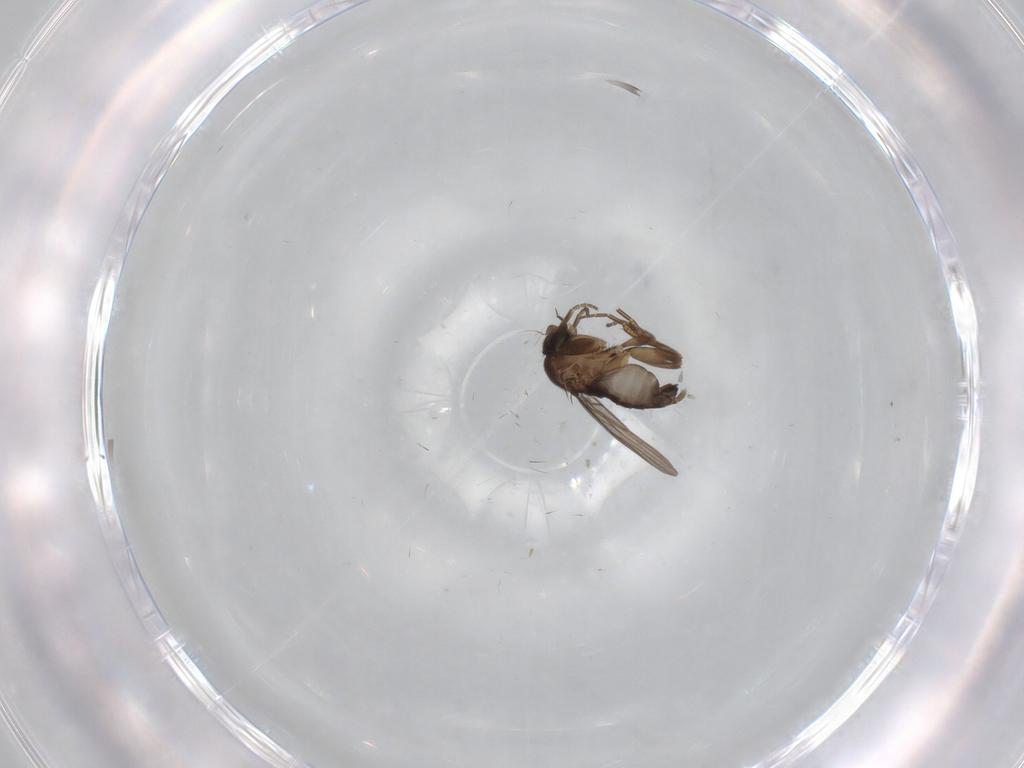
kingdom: Animalia
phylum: Arthropoda
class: Insecta
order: Diptera
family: Phoridae
